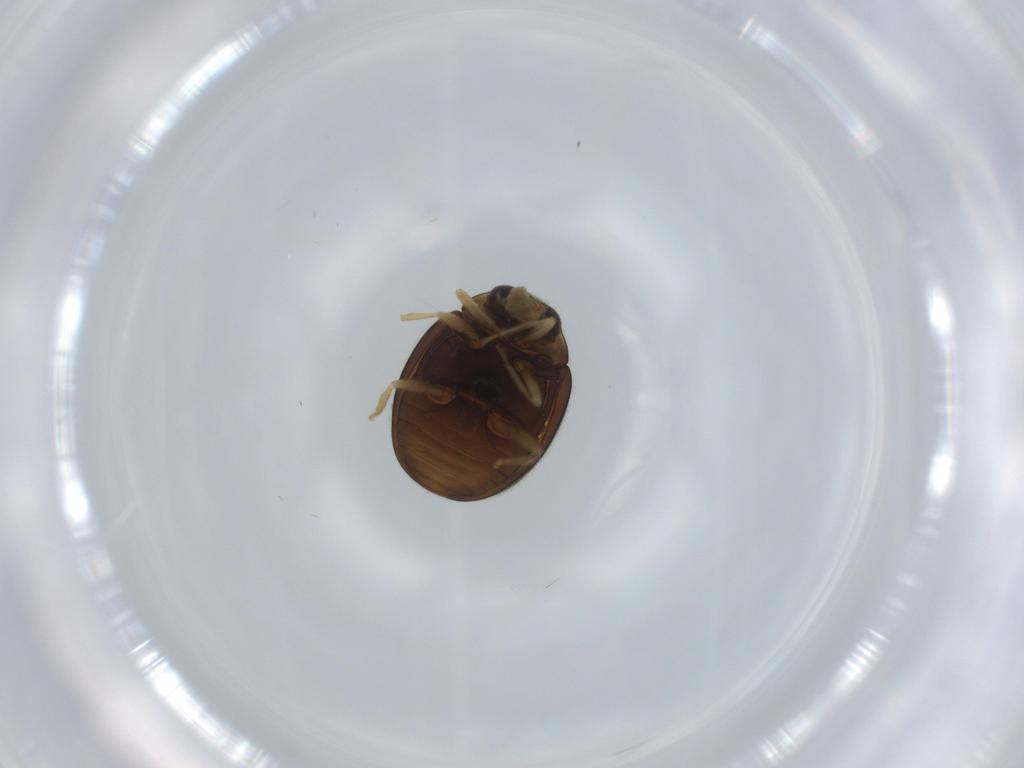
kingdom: Animalia
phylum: Arthropoda
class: Insecta
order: Coleoptera
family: Coccinellidae
